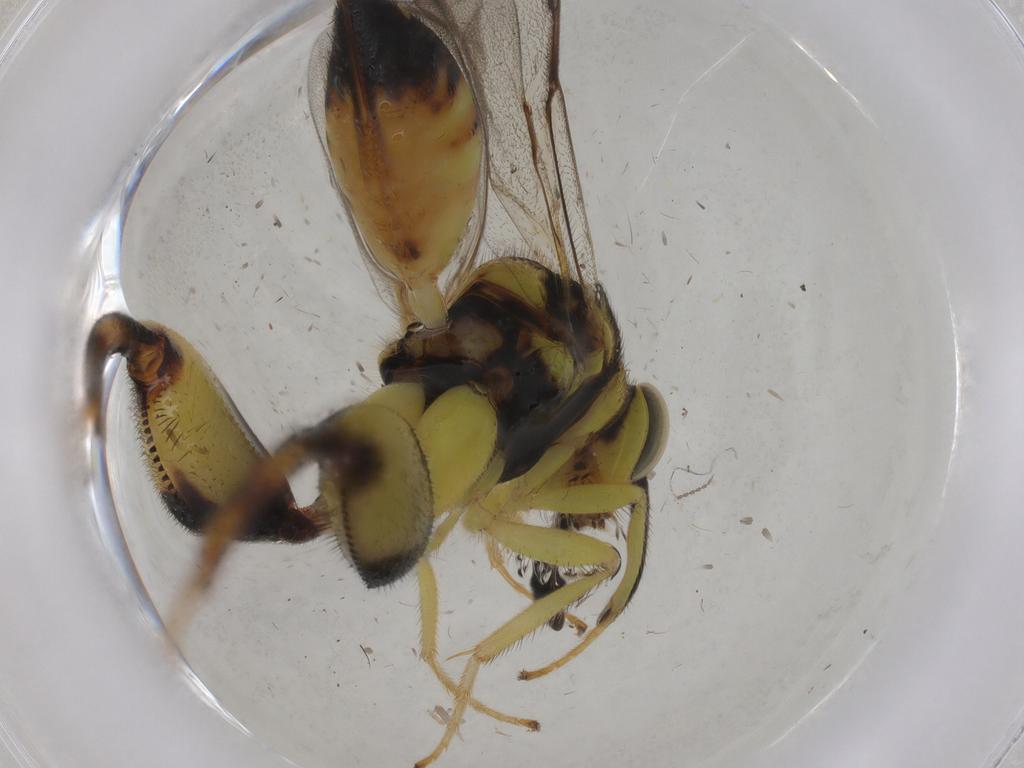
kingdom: Animalia
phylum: Arthropoda
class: Insecta
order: Hymenoptera
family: Chalcididae
